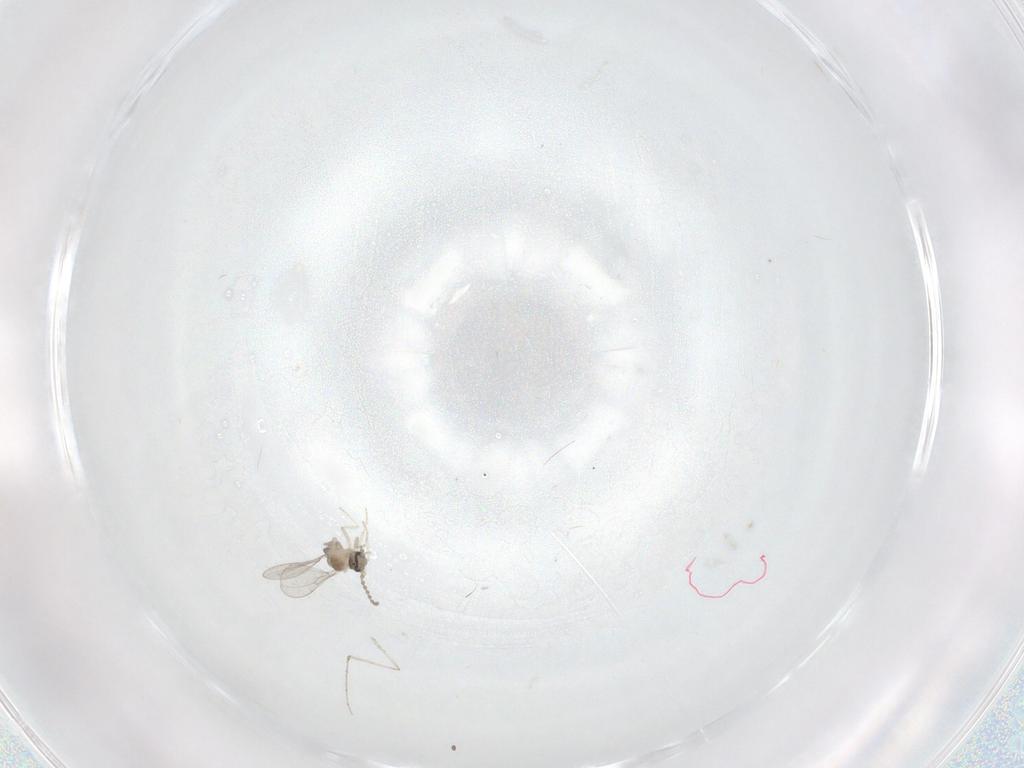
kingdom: Animalia
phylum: Arthropoda
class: Insecta
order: Diptera
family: Cecidomyiidae
